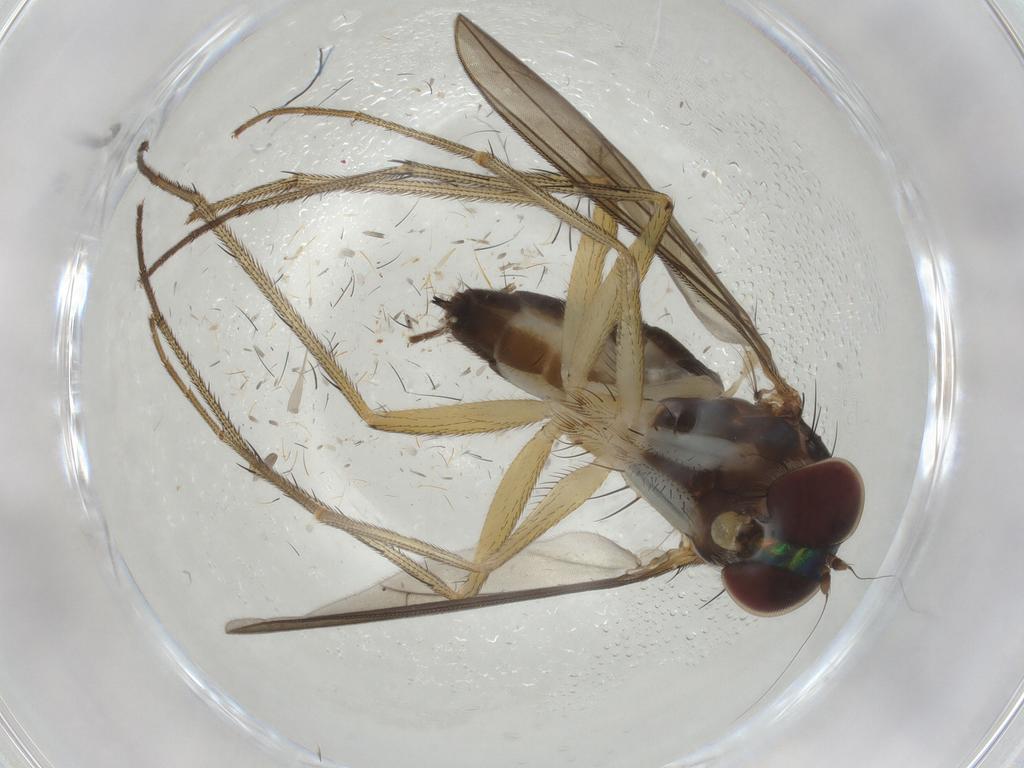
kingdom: Animalia
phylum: Arthropoda
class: Insecta
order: Diptera
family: Dolichopodidae
